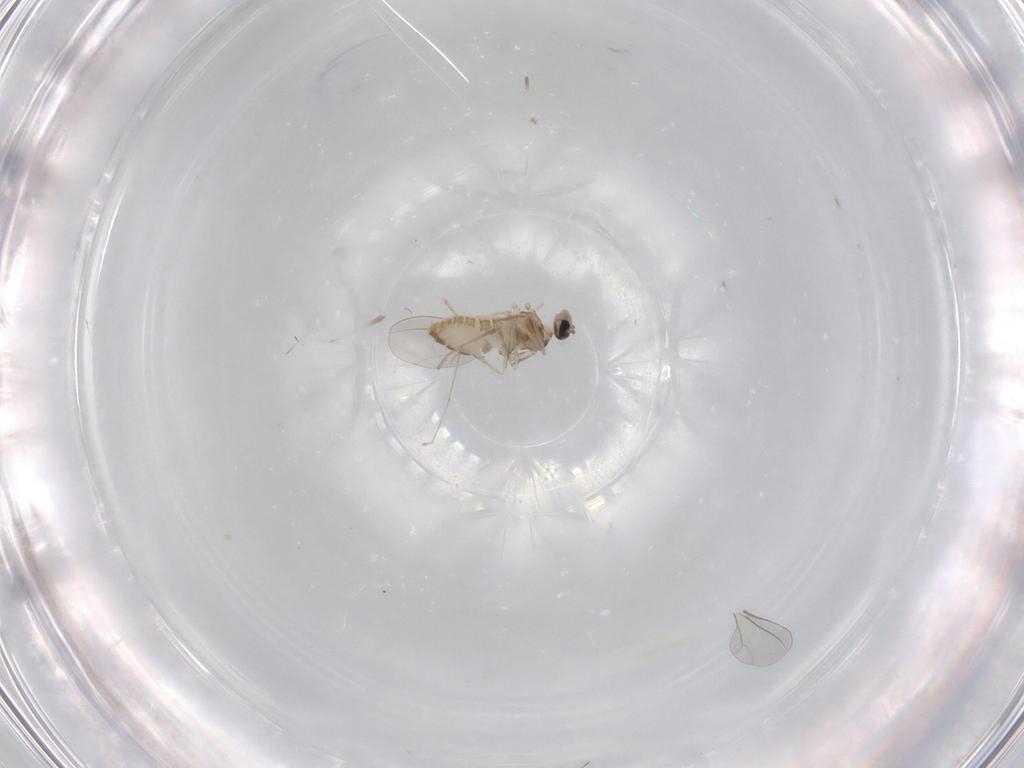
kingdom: Animalia
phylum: Arthropoda
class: Insecta
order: Diptera
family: Cecidomyiidae
